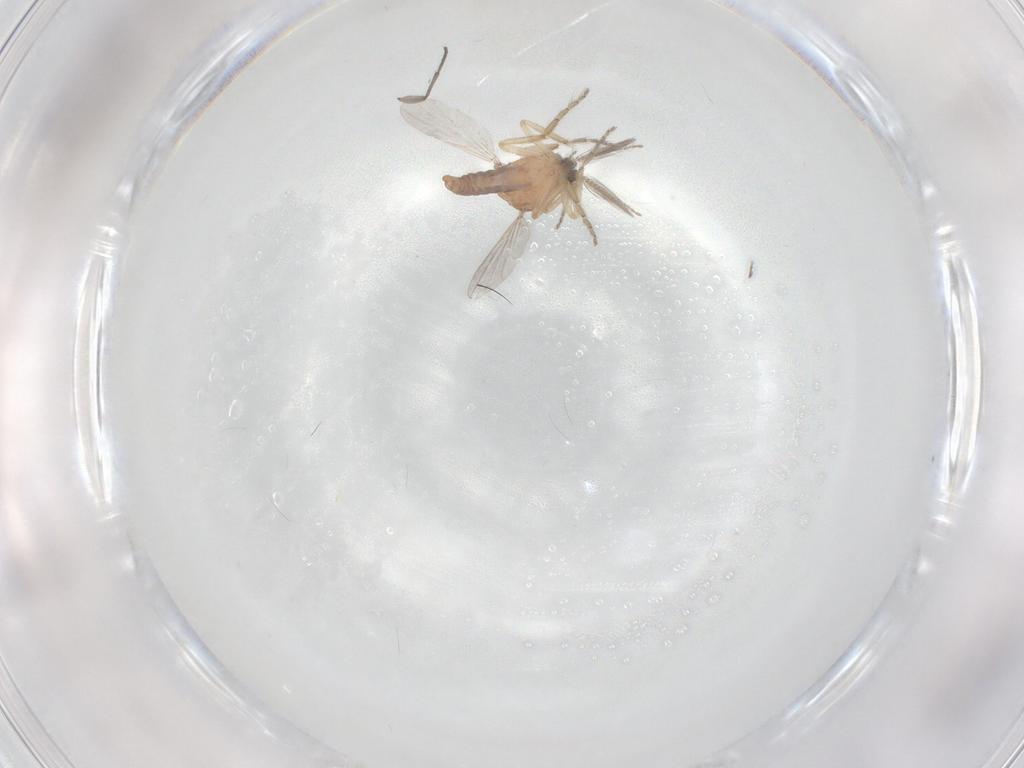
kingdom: Animalia
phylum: Arthropoda
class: Insecta
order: Diptera
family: Ceratopogonidae
